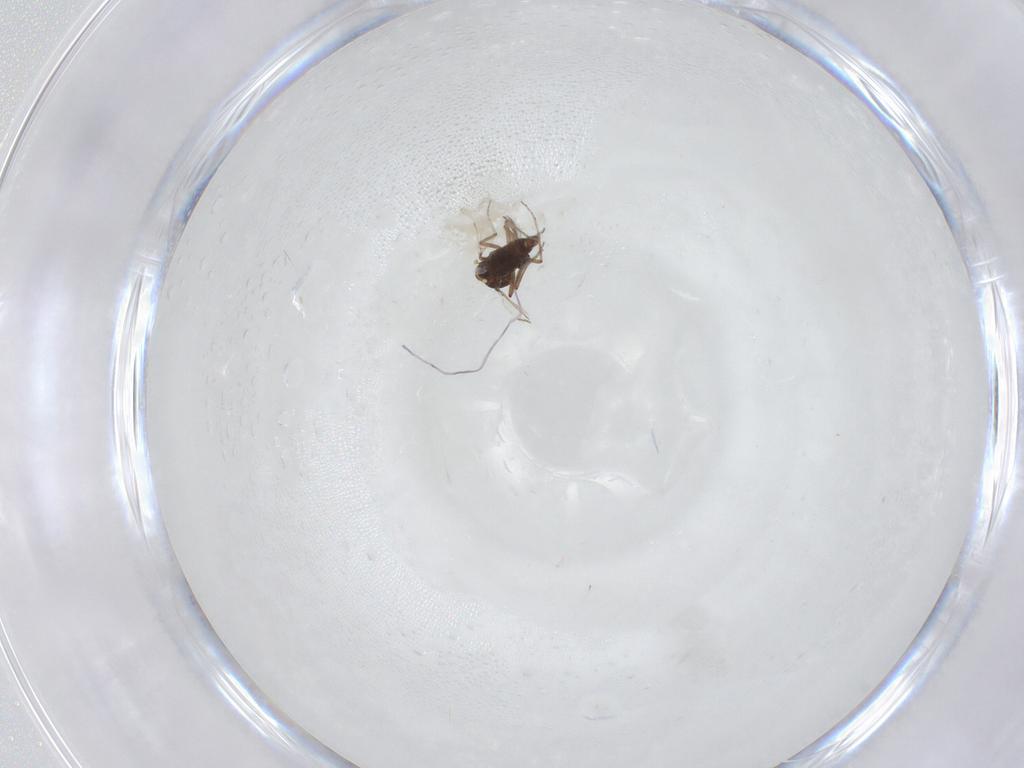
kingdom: Animalia
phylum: Arthropoda
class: Insecta
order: Diptera
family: Ceratopogonidae
